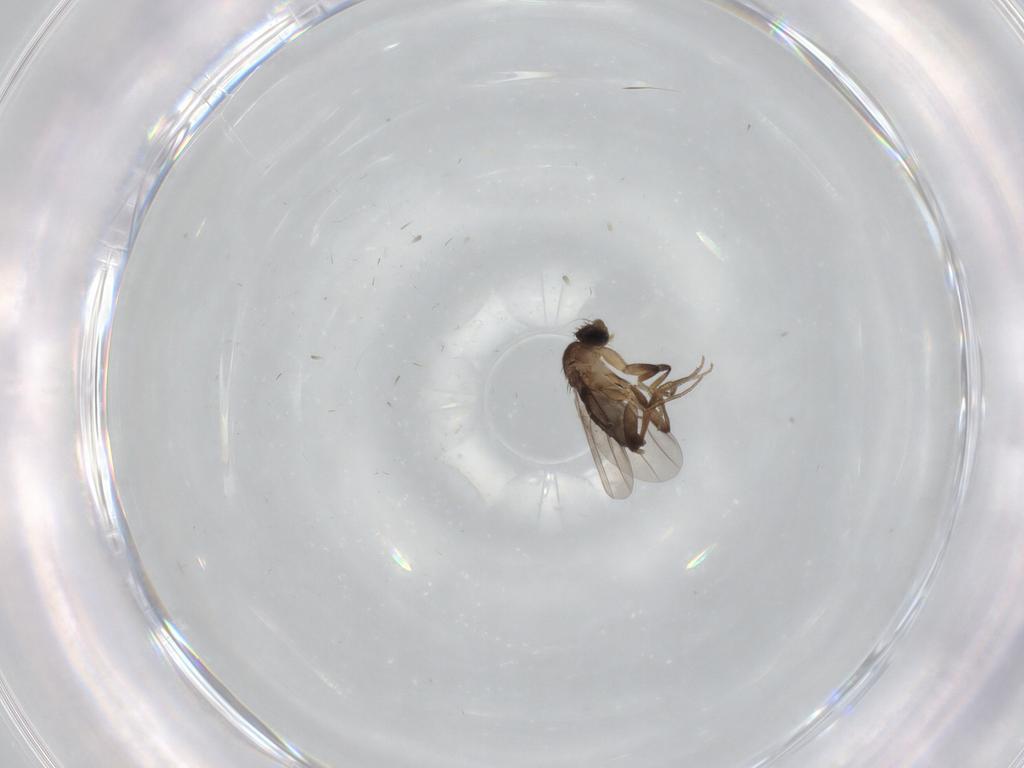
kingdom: Animalia
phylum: Arthropoda
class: Insecta
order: Diptera
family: Phoridae
